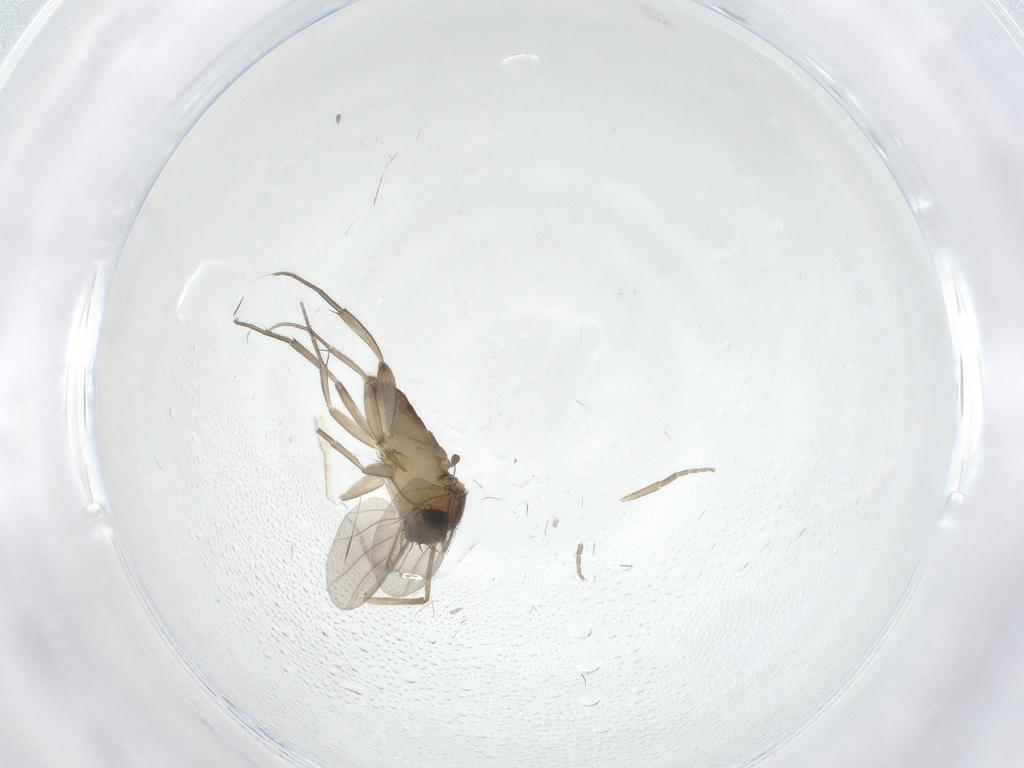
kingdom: Animalia
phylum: Arthropoda
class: Insecta
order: Diptera
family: Phoridae
